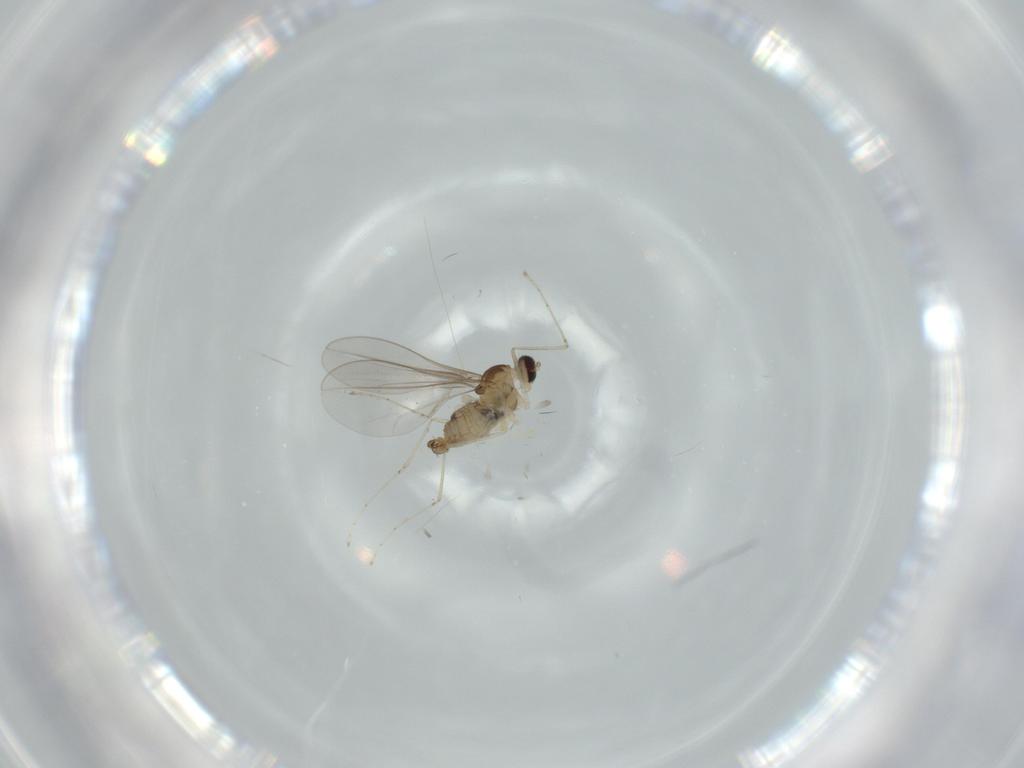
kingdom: Animalia
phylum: Arthropoda
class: Insecta
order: Diptera
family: Cecidomyiidae
